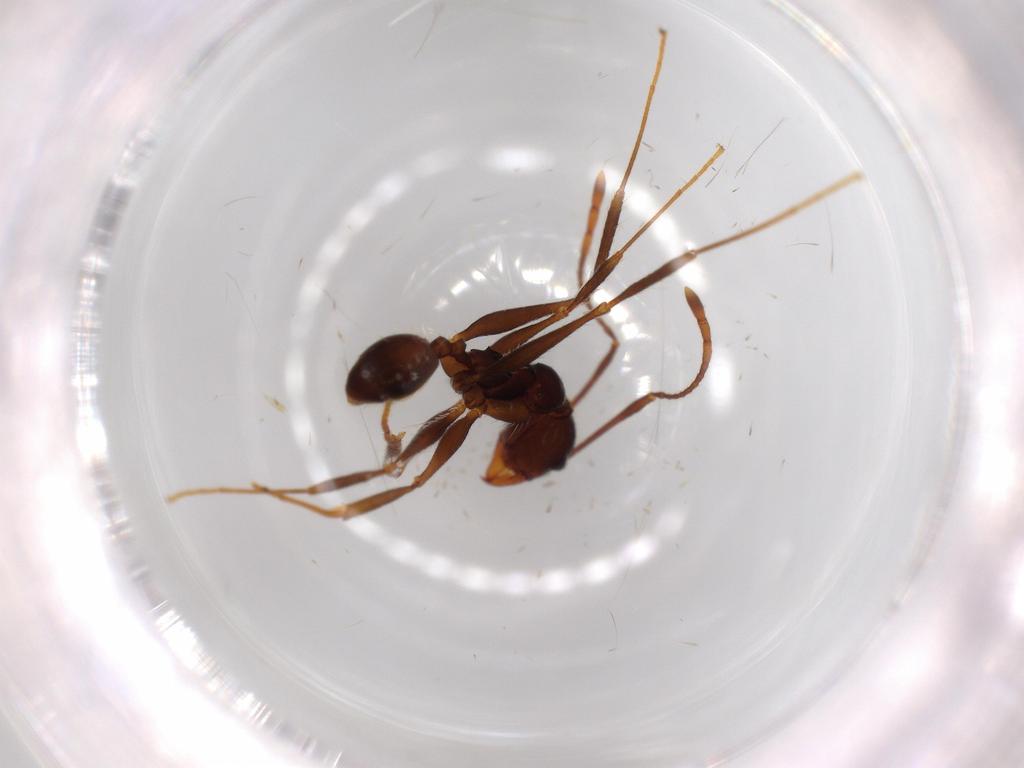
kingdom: Animalia
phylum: Arthropoda
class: Insecta
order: Hymenoptera
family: Formicidae
